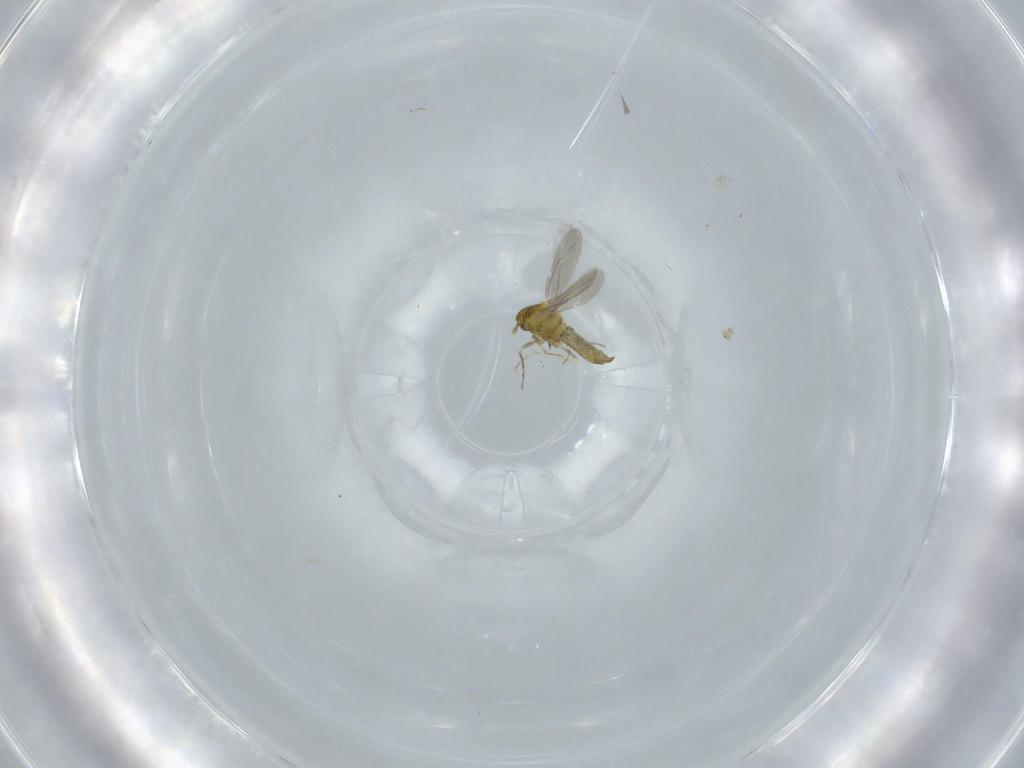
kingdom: Animalia
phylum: Arthropoda
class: Insecta
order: Hemiptera
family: Aleyrodidae
